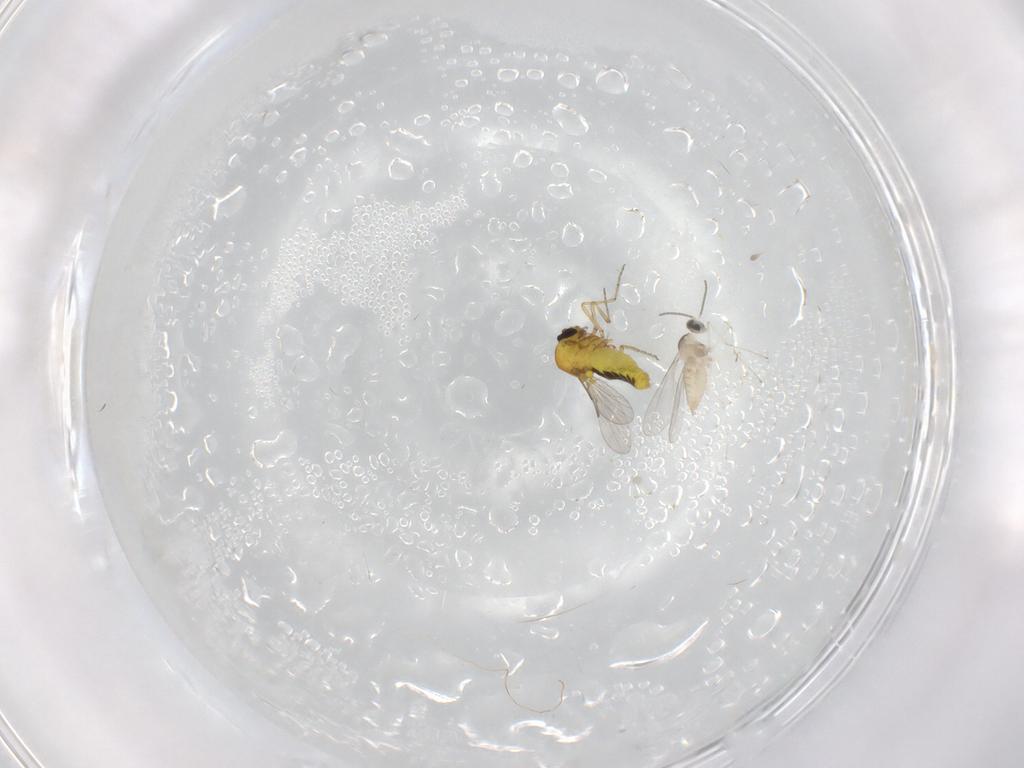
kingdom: Animalia
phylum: Arthropoda
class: Insecta
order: Diptera
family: Cecidomyiidae
